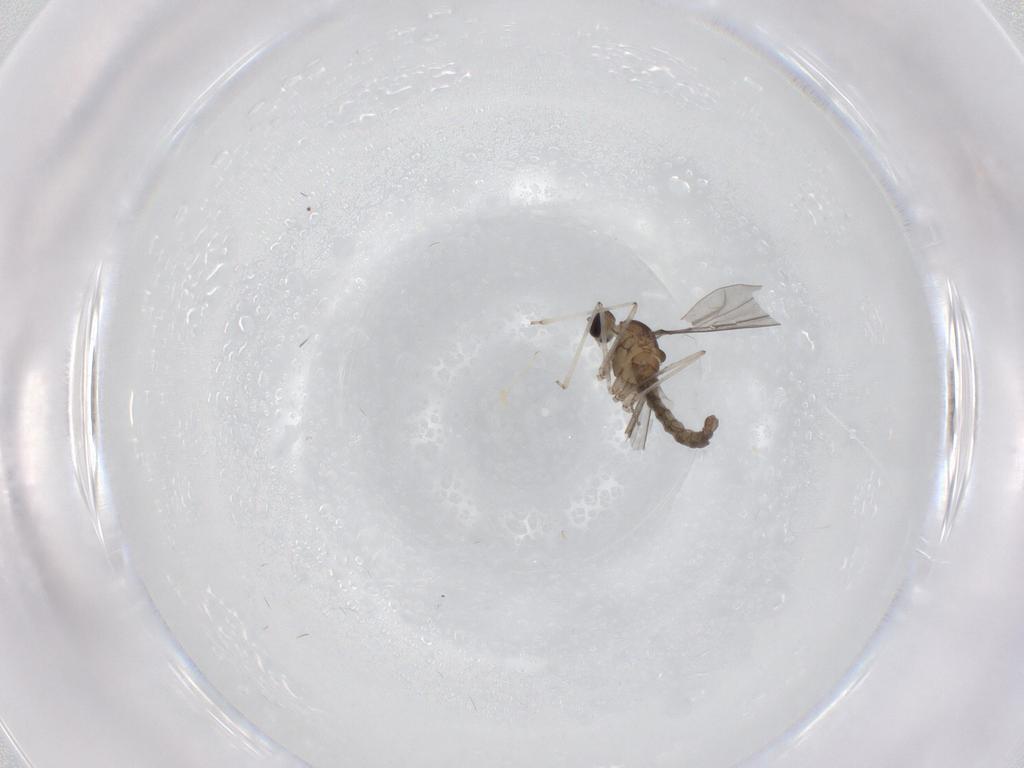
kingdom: Animalia
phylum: Arthropoda
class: Insecta
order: Diptera
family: Cecidomyiidae
